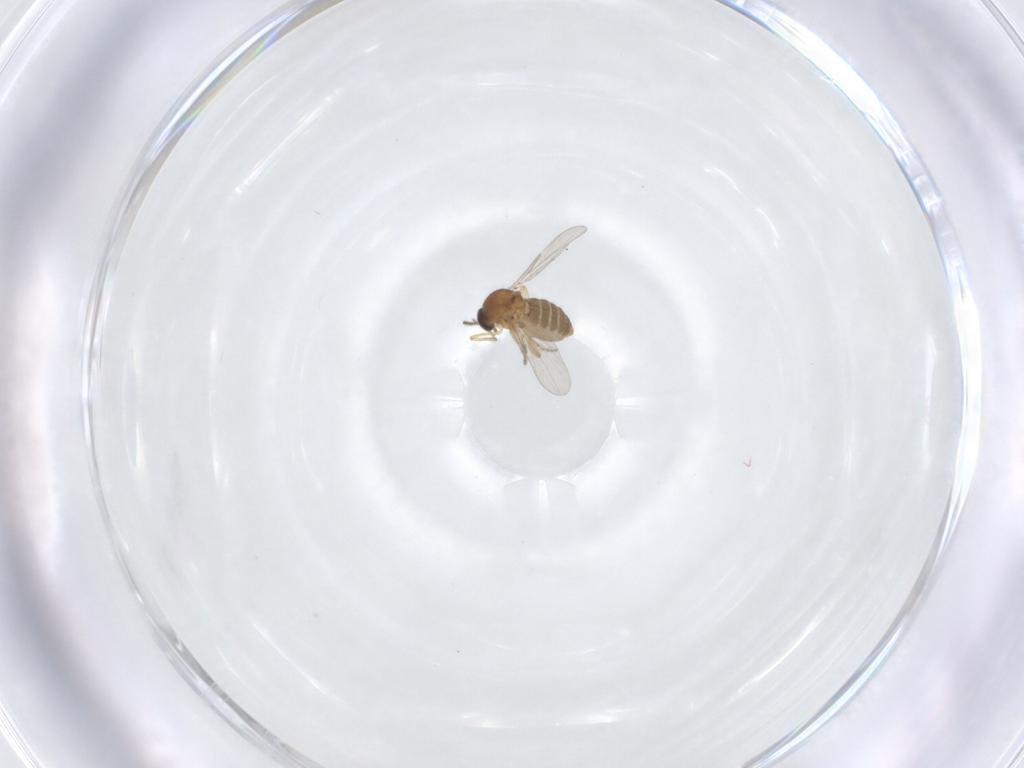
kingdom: Animalia
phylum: Arthropoda
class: Insecta
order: Diptera
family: Ceratopogonidae
